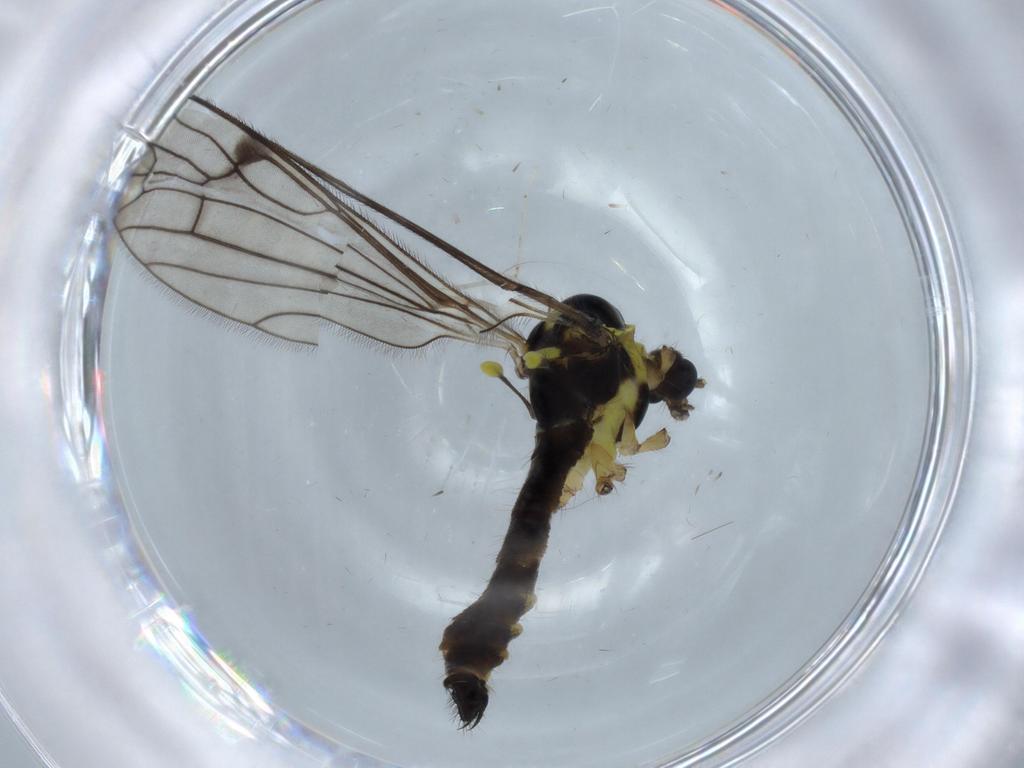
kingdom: Animalia
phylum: Arthropoda
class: Insecta
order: Diptera
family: Limoniidae
